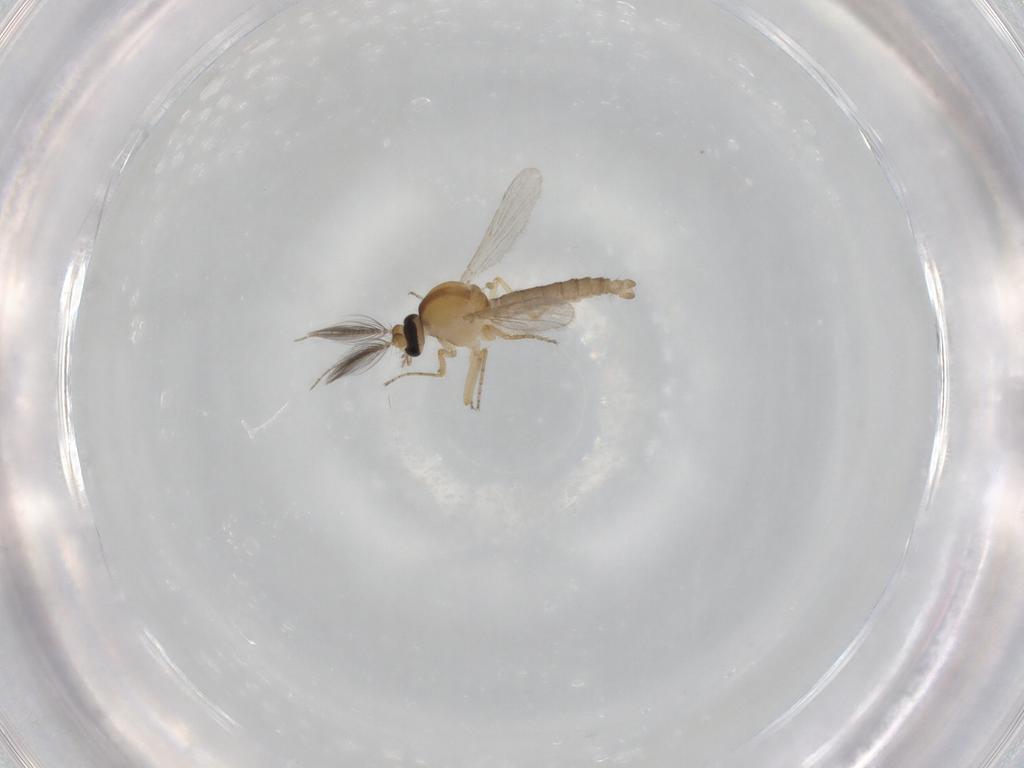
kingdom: Animalia
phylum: Arthropoda
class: Insecta
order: Diptera
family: Ceratopogonidae
